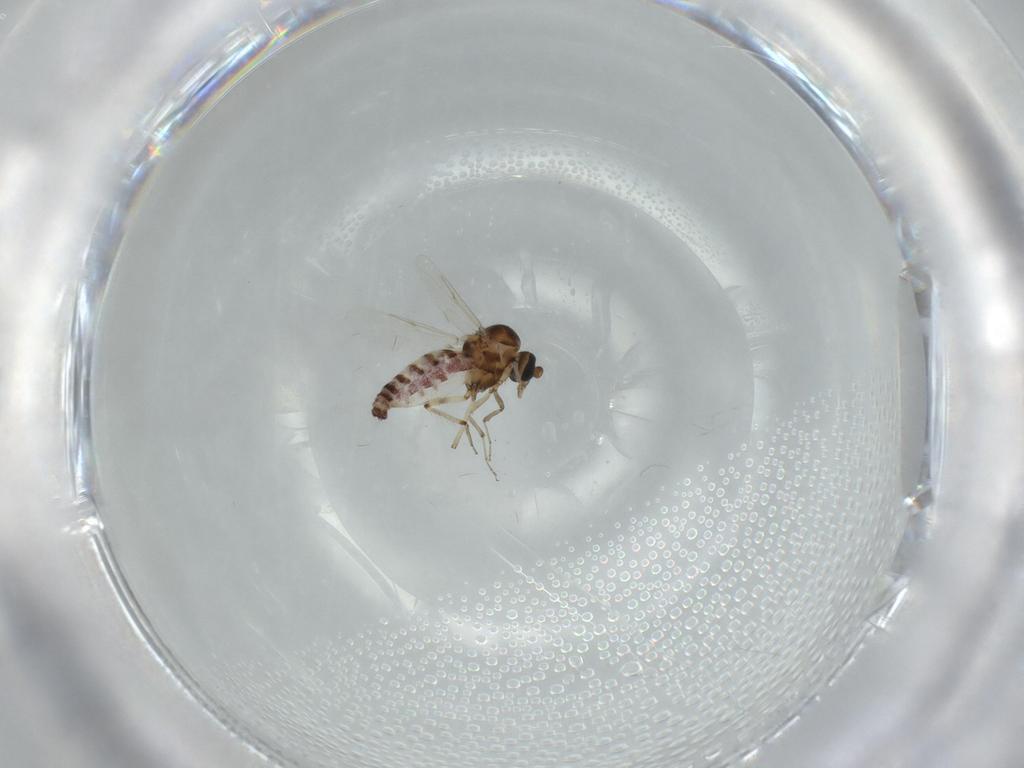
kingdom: Animalia
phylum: Arthropoda
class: Insecta
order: Diptera
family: Ceratopogonidae
